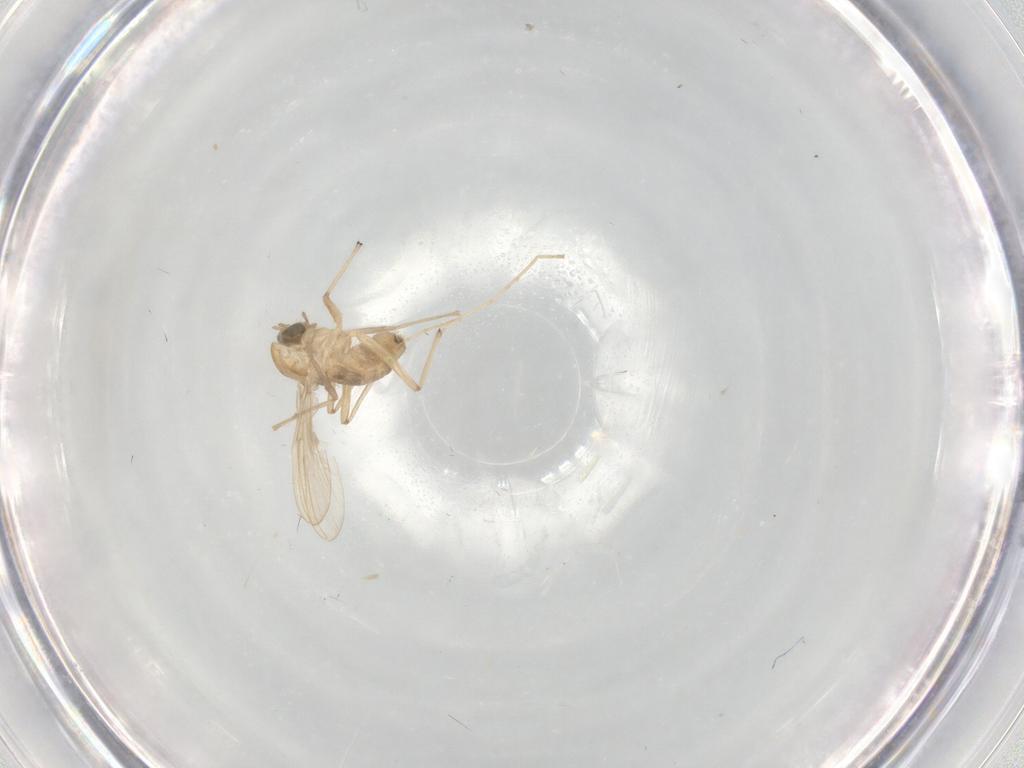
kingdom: Animalia
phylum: Arthropoda
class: Insecta
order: Diptera
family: Chironomidae
